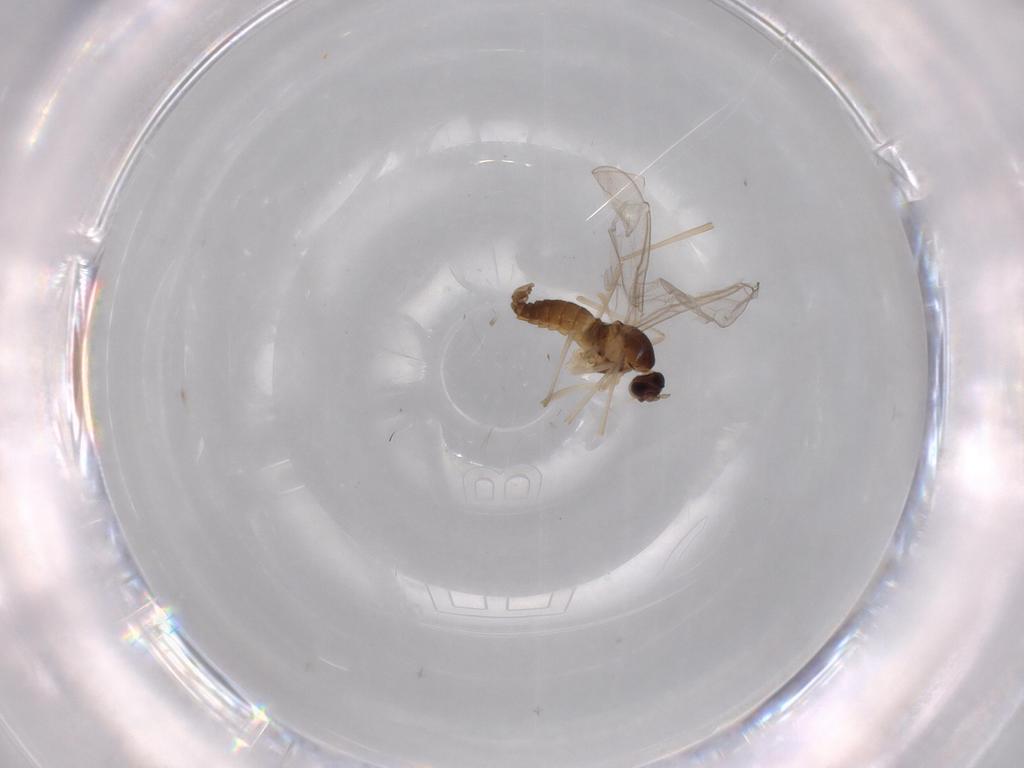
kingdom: Animalia
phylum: Arthropoda
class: Insecta
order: Diptera
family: Cecidomyiidae
